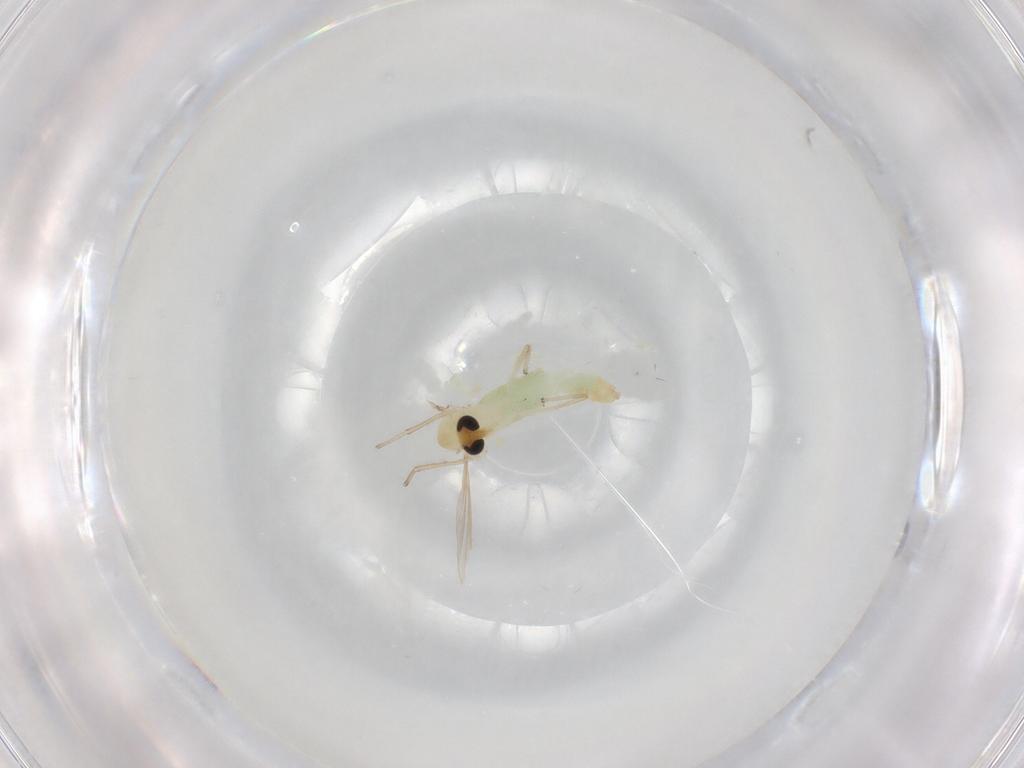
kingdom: Animalia
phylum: Arthropoda
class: Insecta
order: Diptera
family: Chironomidae
